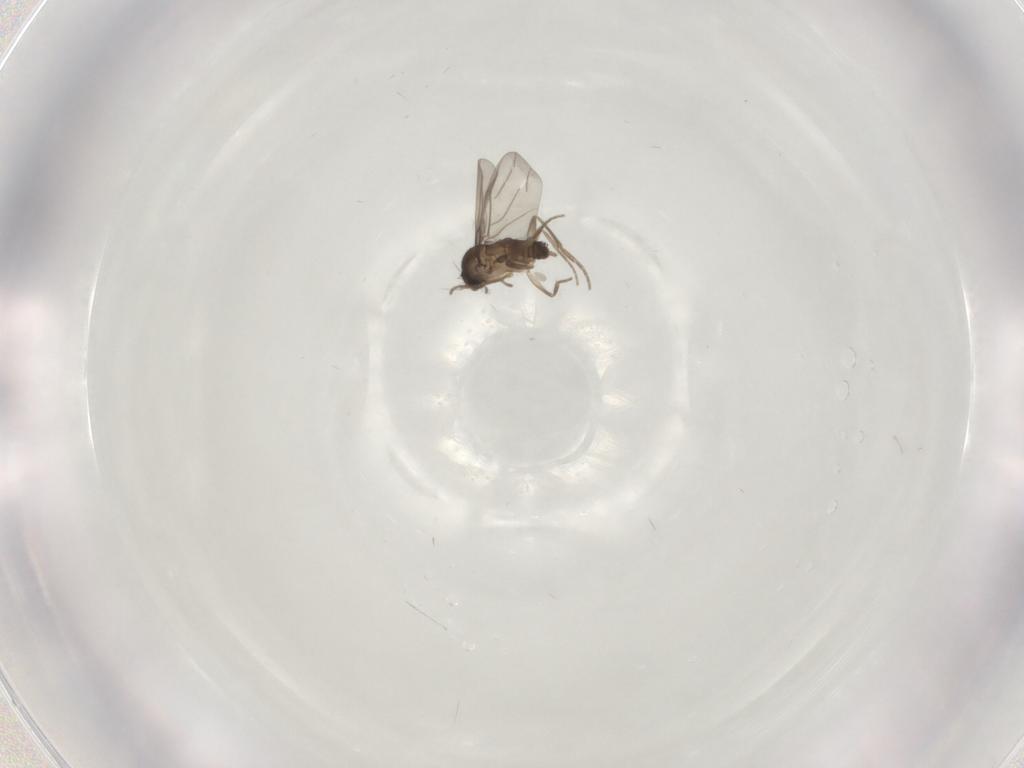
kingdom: Animalia
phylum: Arthropoda
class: Insecta
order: Diptera
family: Phoridae
